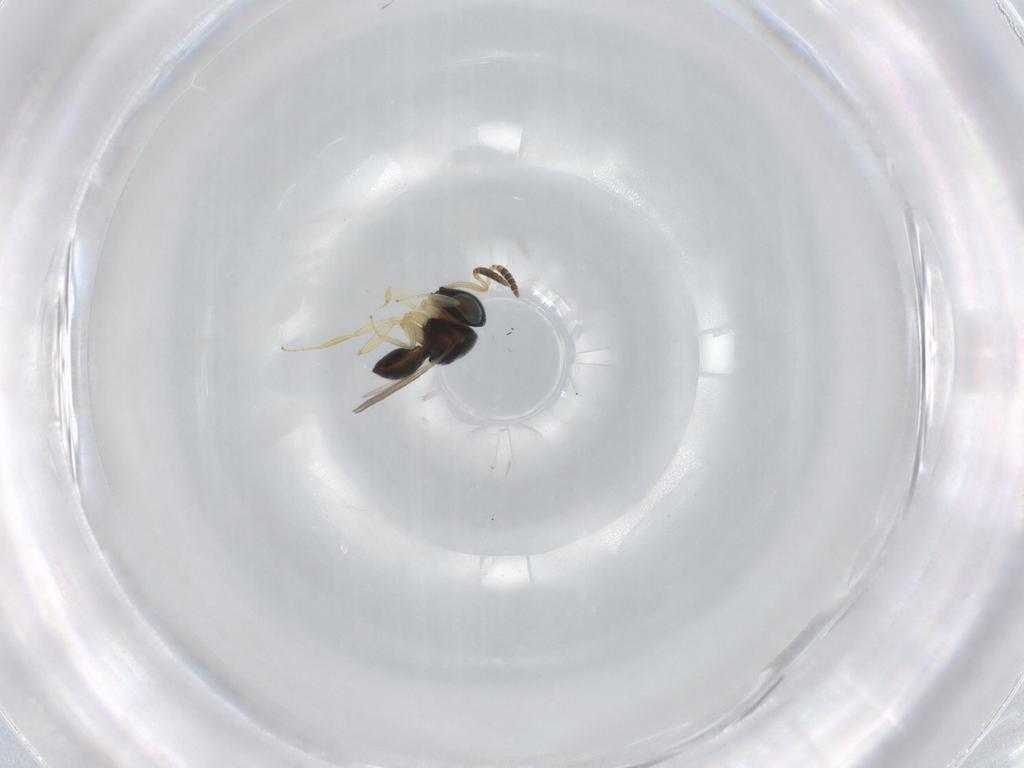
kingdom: Animalia
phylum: Arthropoda
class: Insecta
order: Hymenoptera
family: Scelionidae
